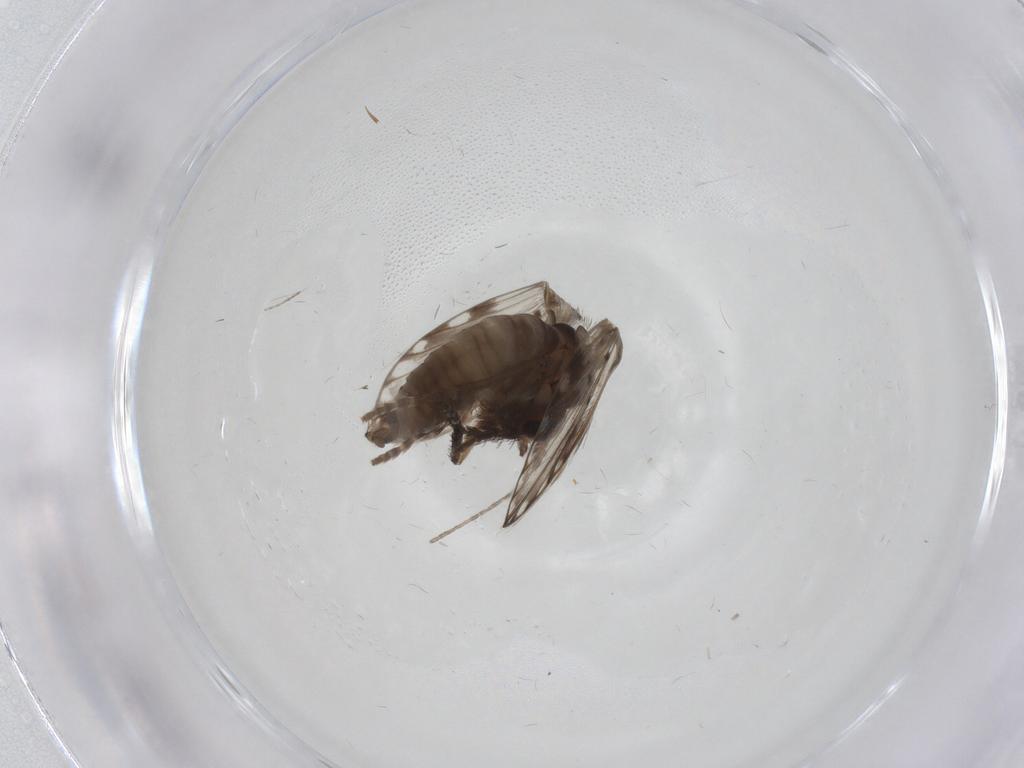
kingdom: Animalia
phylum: Arthropoda
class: Insecta
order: Diptera
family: Psychodidae
